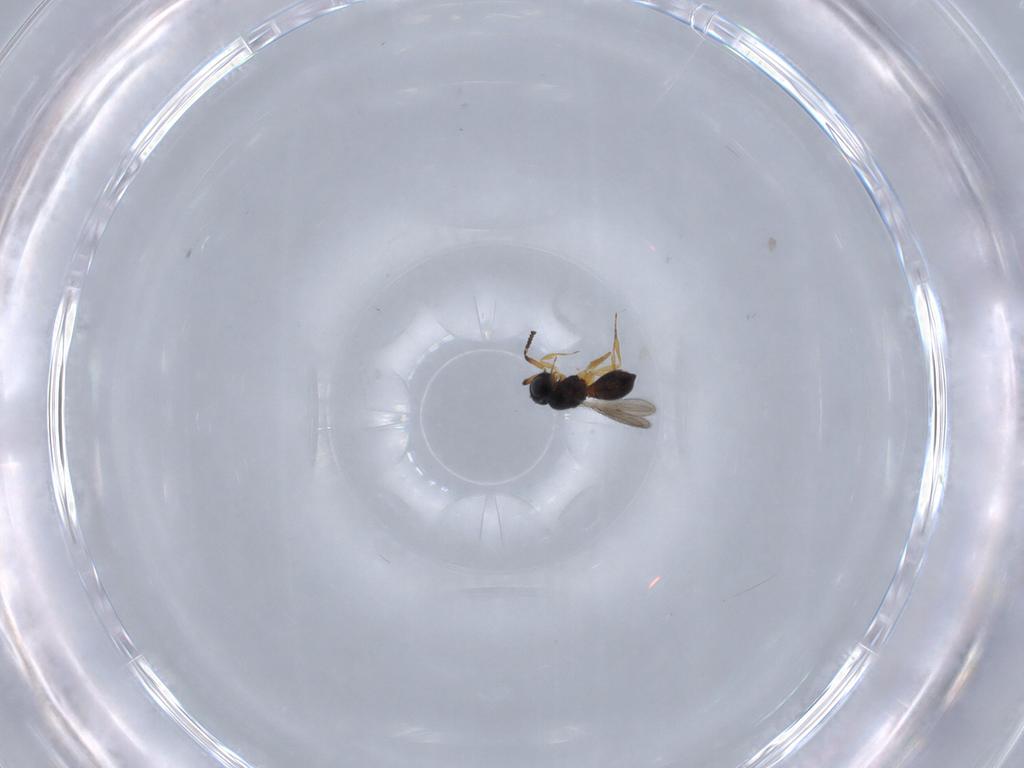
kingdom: Animalia
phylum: Arthropoda
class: Insecta
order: Hymenoptera
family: Scelionidae
